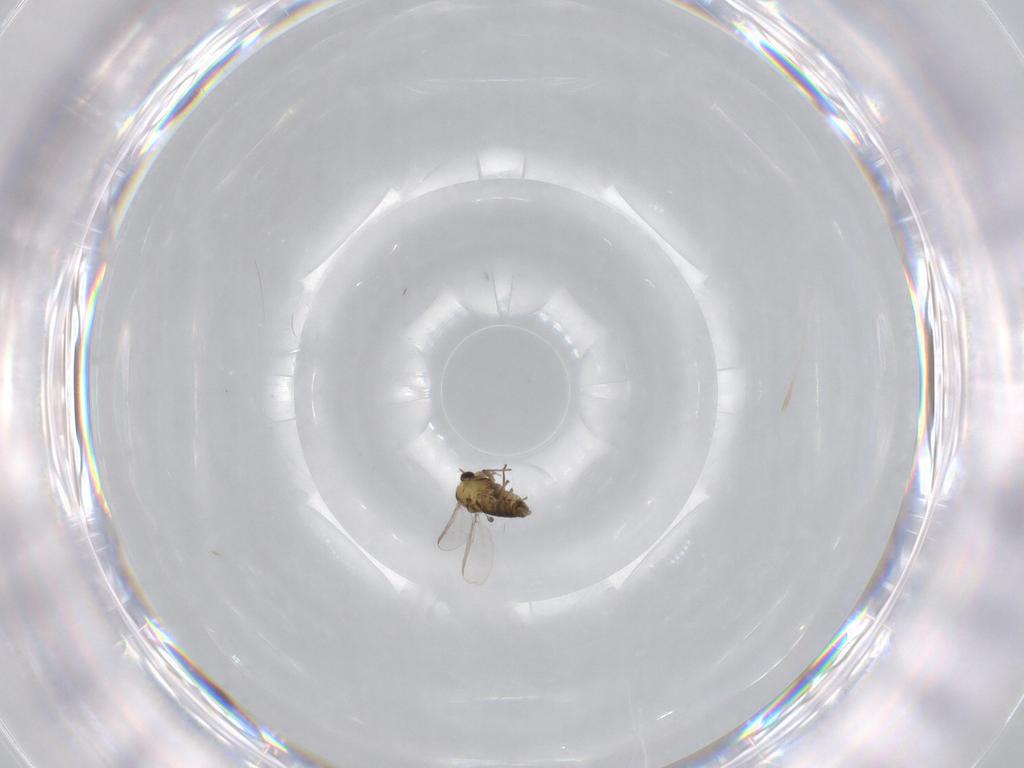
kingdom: Animalia
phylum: Arthropoda
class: Insecta
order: Diptera
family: Chironomidae
